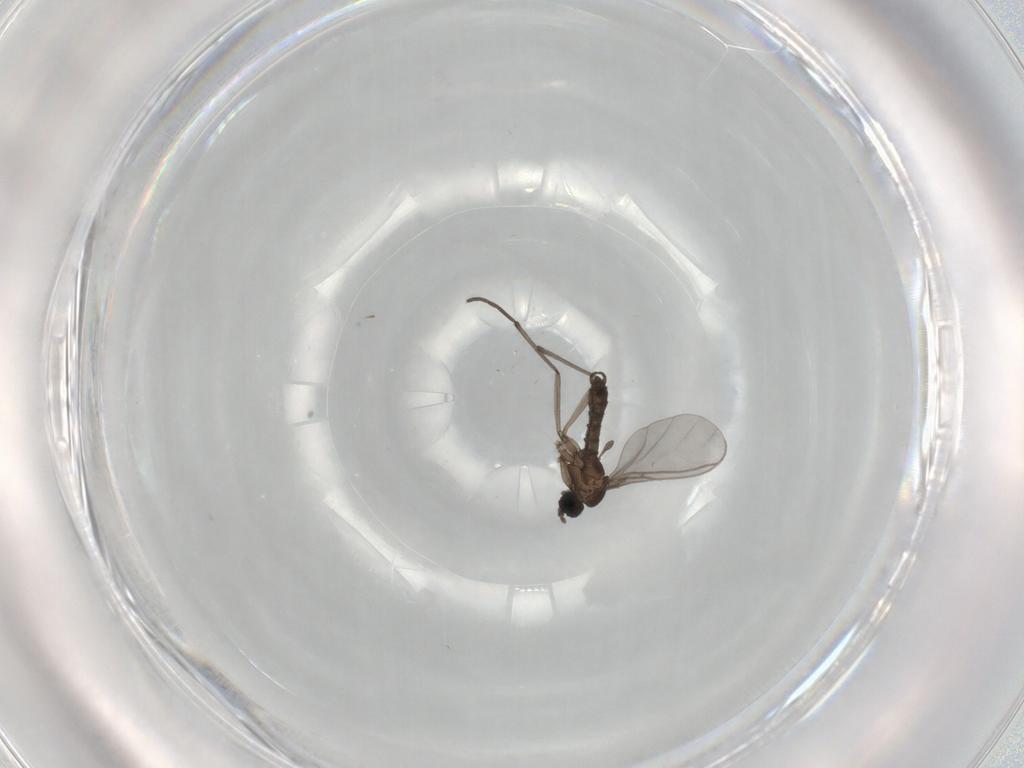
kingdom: Animalia
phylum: Arthropoda
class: Insecta
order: Diptera
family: Sciaridae
